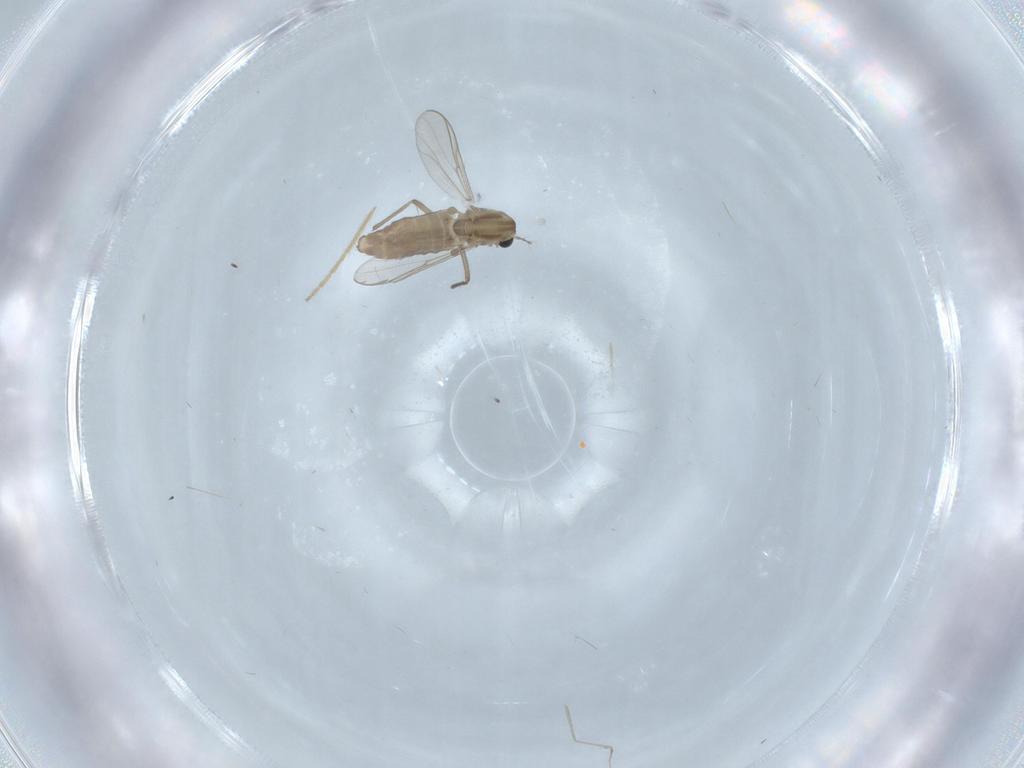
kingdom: Animalia
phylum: Arthropoda
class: Insecta
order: Diptera
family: Chironomidae
